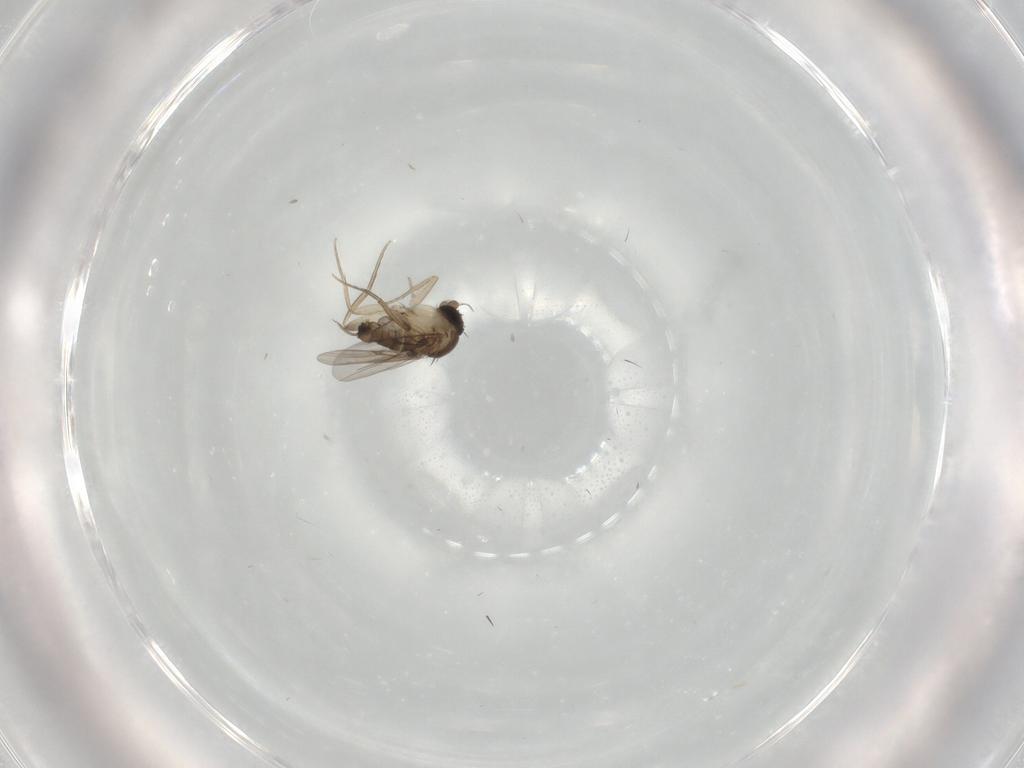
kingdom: Animalia
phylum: Arthropoda
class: Insecta
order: Diptera
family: Phoridae
